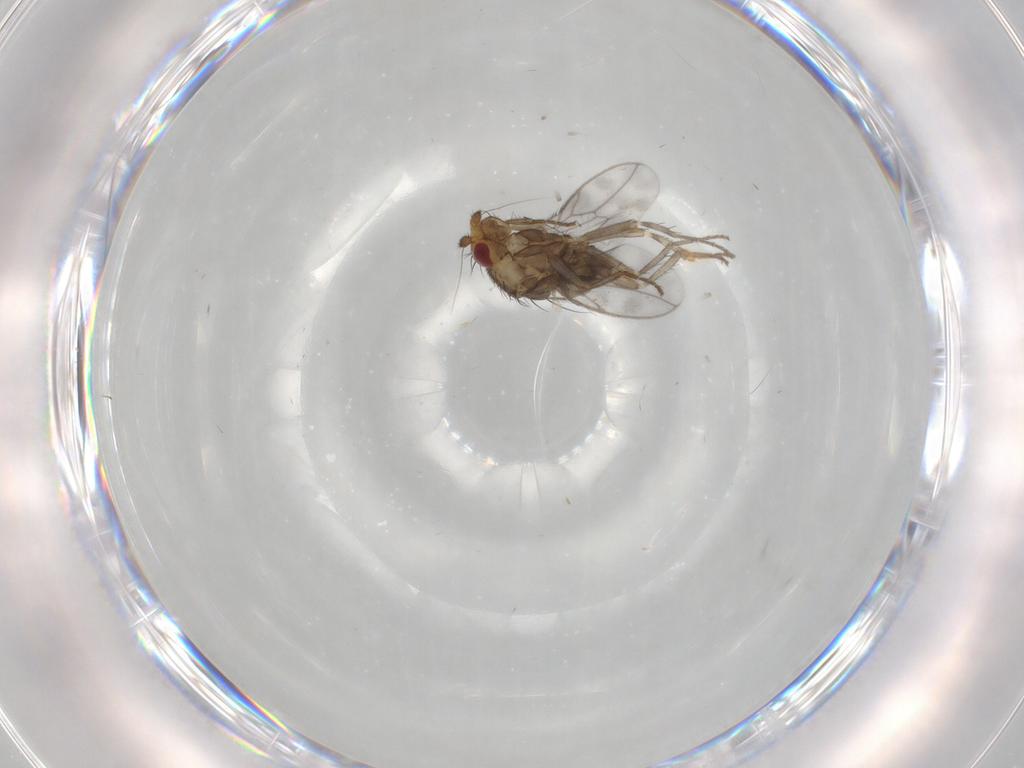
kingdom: Animalia
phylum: Arthropoda
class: Insecta
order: Diptera
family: Sphaeroceridae
